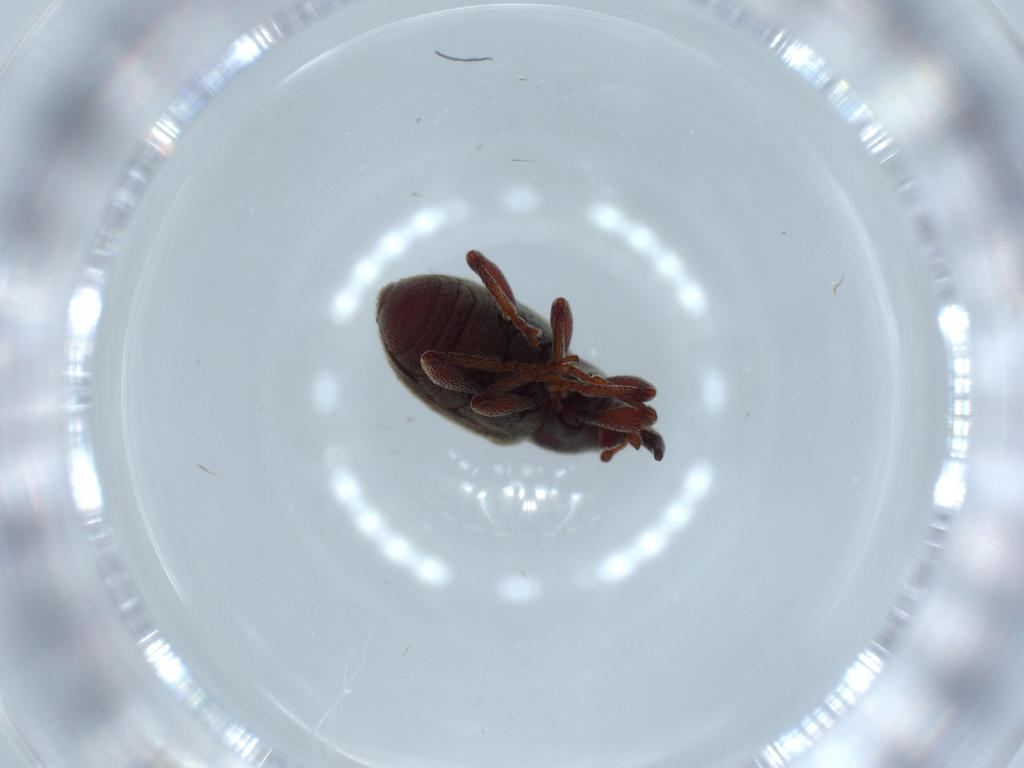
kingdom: Animalia
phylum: Arthropoda
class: Insecta
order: Coleoptera
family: Curculionidae
